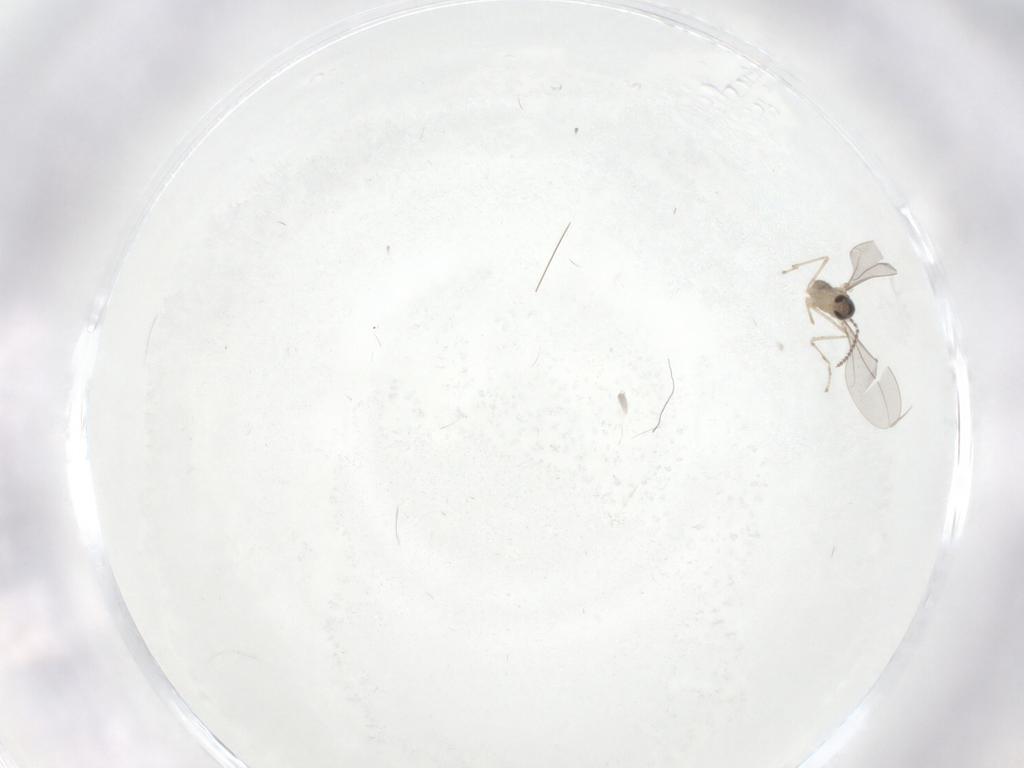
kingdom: Animalia
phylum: Arthropoda
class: Insecta
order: Diptera
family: Cecidomyiidae
